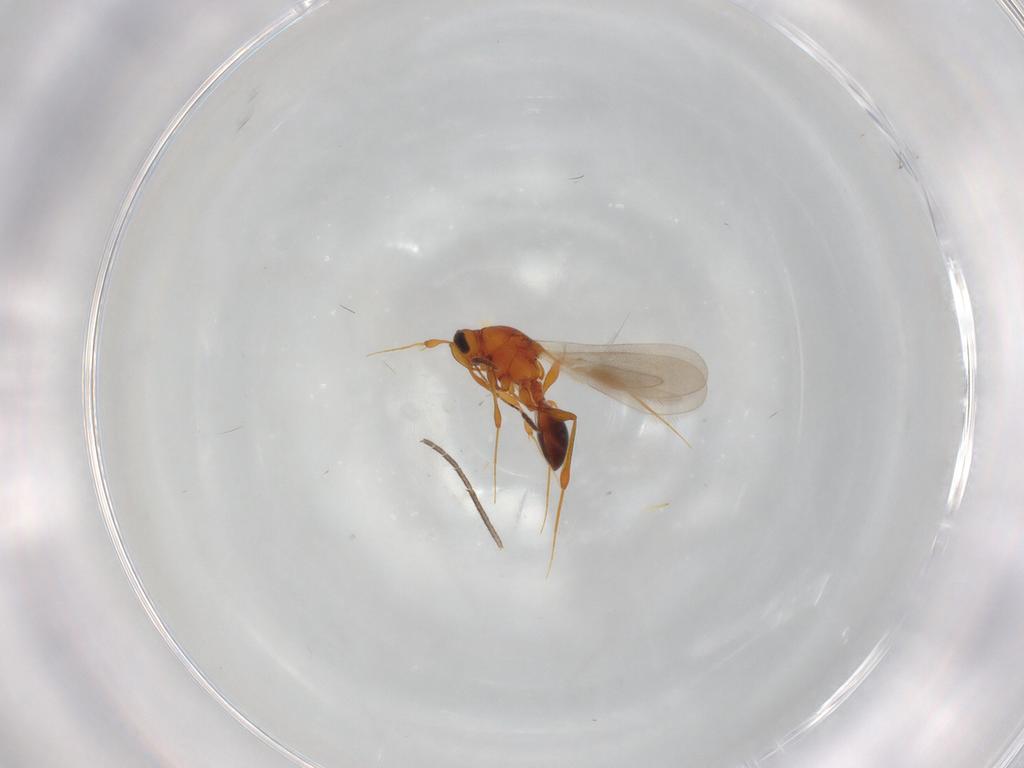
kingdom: Animalia
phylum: Arthropoda
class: Insecta
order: Hymenoptera
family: Platygastridae
